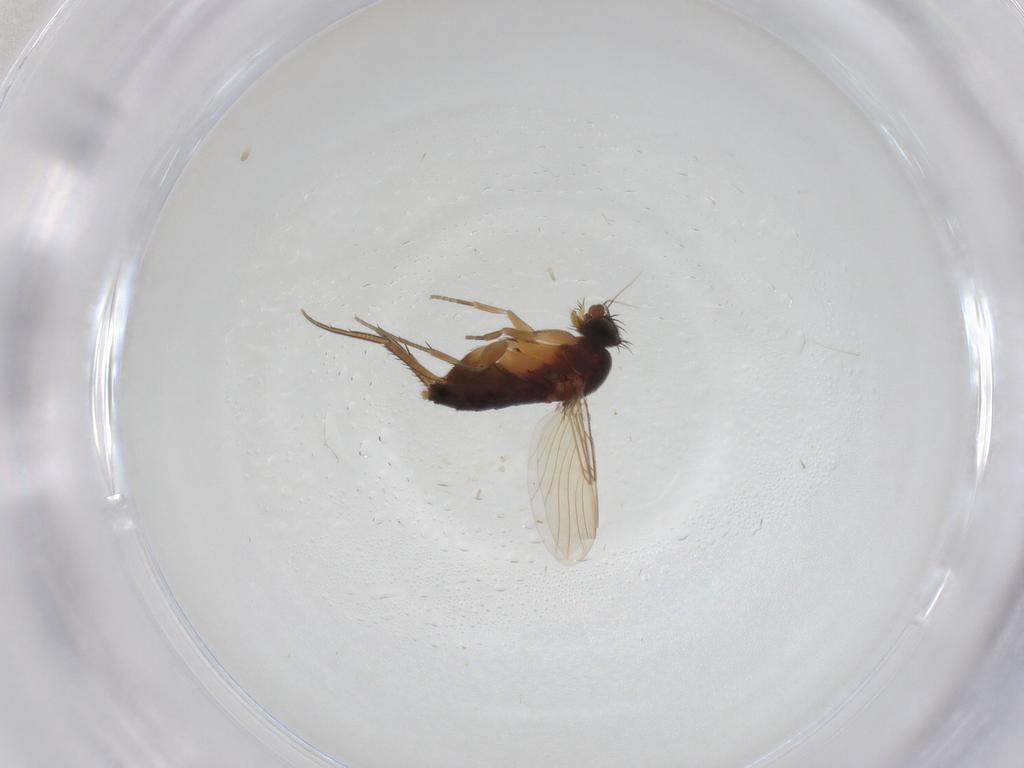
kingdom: Animalia
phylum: Arthropoda
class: Insecta
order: Diptera
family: Phoridae
